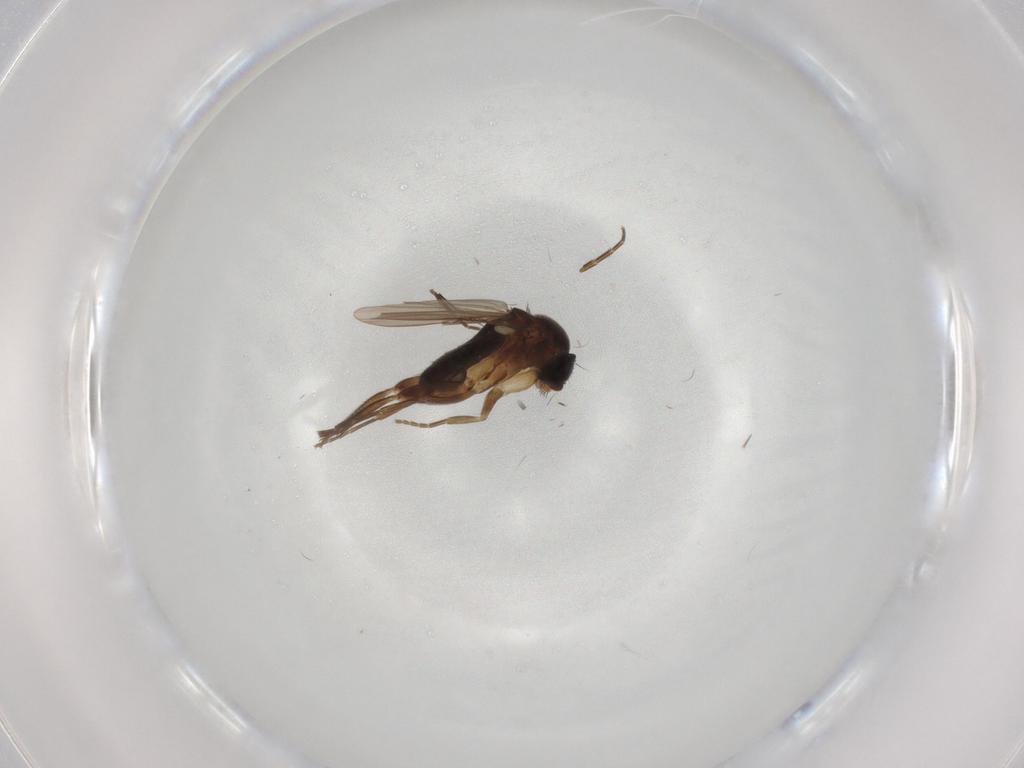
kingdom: Animalia
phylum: Arthropoda
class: Insecta
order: Diptera
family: Phoridae
